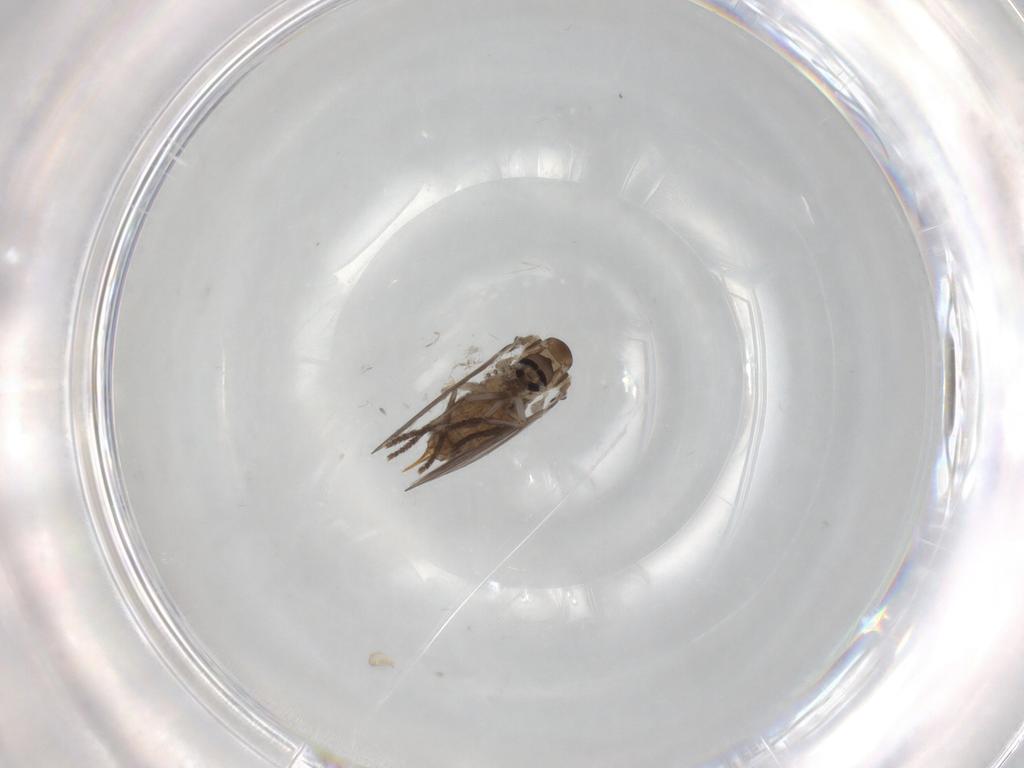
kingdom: Animalia
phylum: Arthropoda
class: Insecta
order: Diptera
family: Psychodidae
